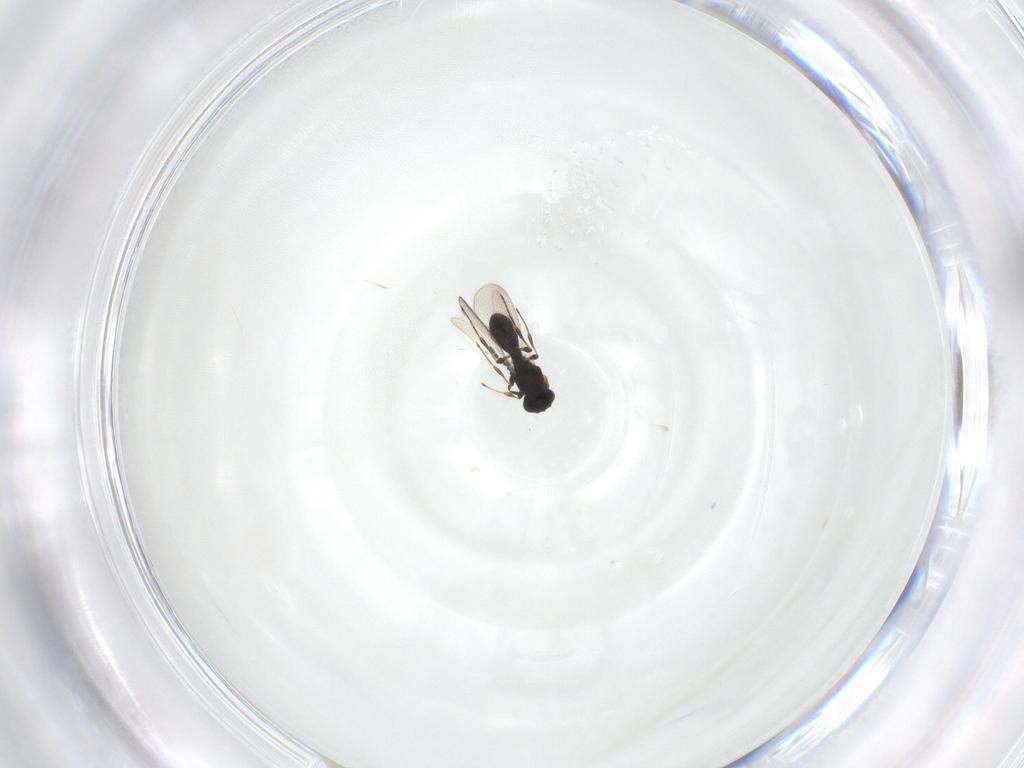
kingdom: Animalia
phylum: Arthropoda
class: Insecta
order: Hymenoptera
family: Platygastridae
